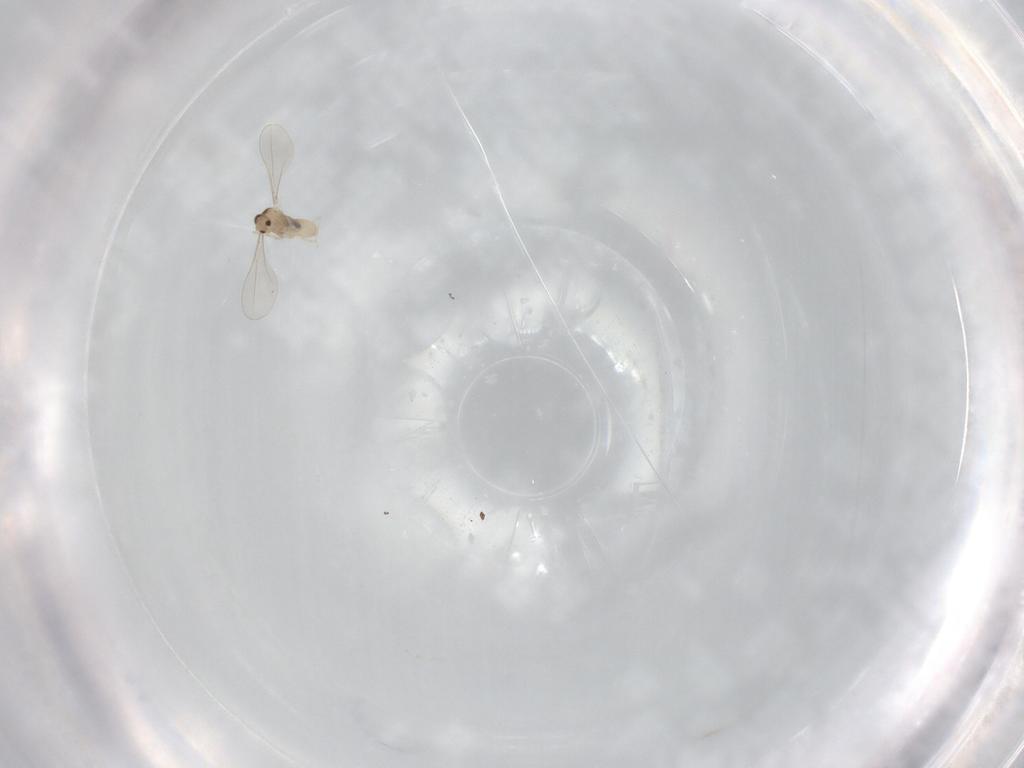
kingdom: Animalia
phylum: Arthropoda
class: Insecta
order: Diptera
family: Cecidomyiidae
